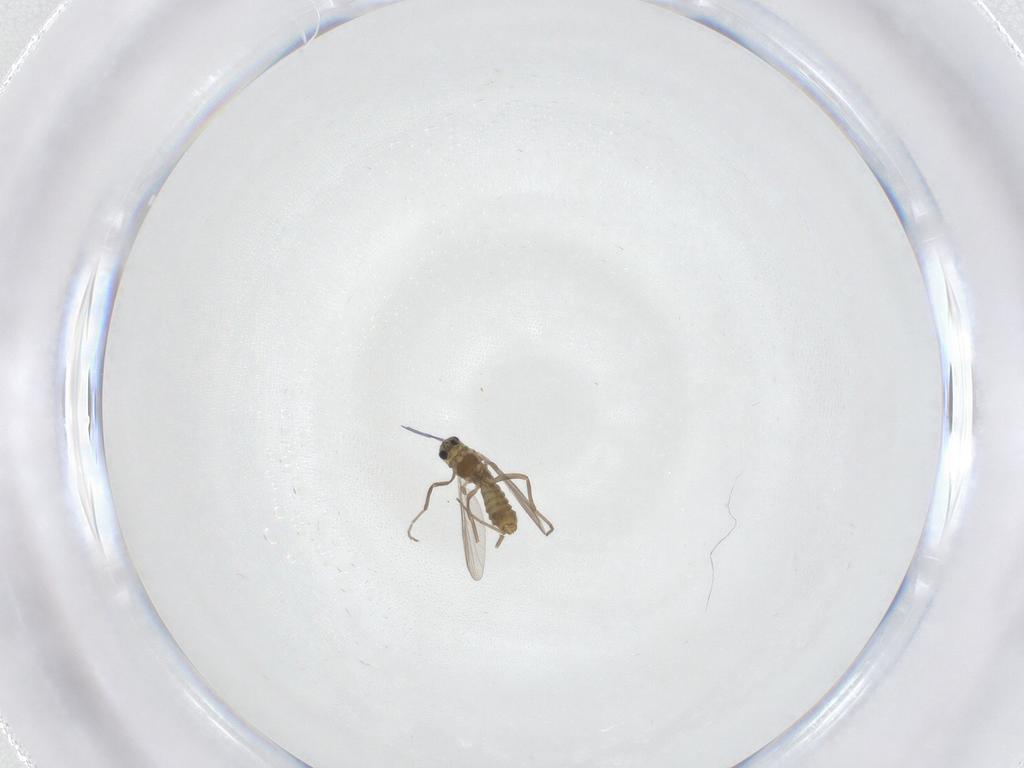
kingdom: Animalia
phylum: Arthropoda
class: Insecta
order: Diptera
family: Chironomidae
